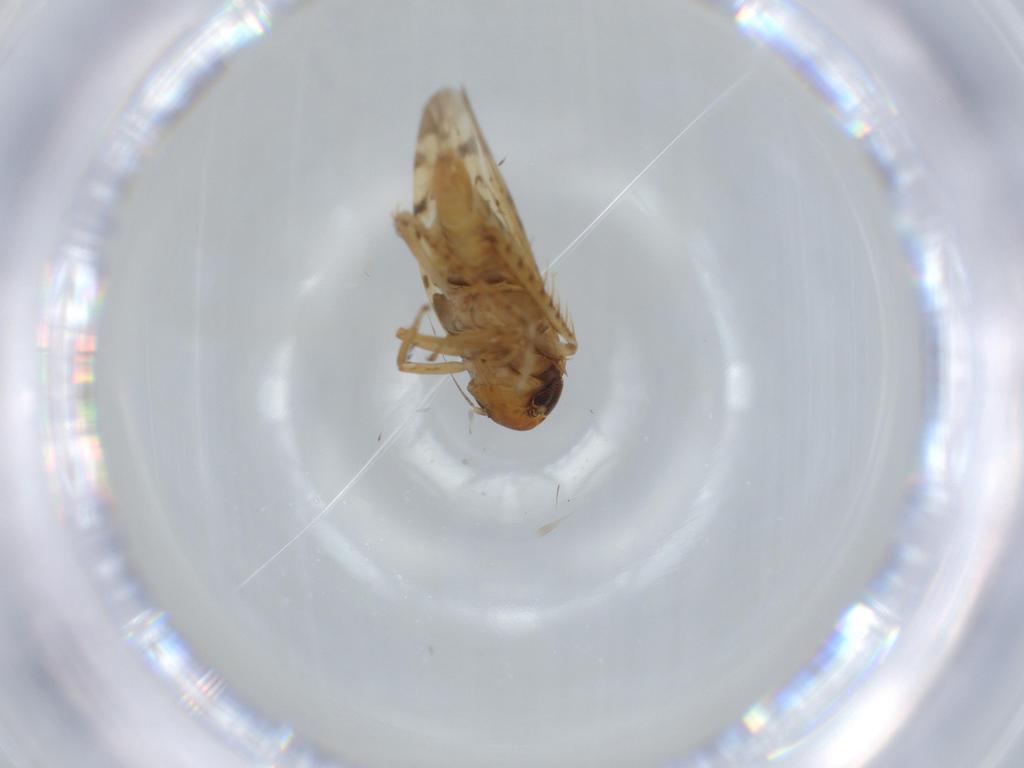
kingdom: Animalia
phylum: Arthropoda
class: Insecta
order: Hemiptera
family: Cicadellidae
